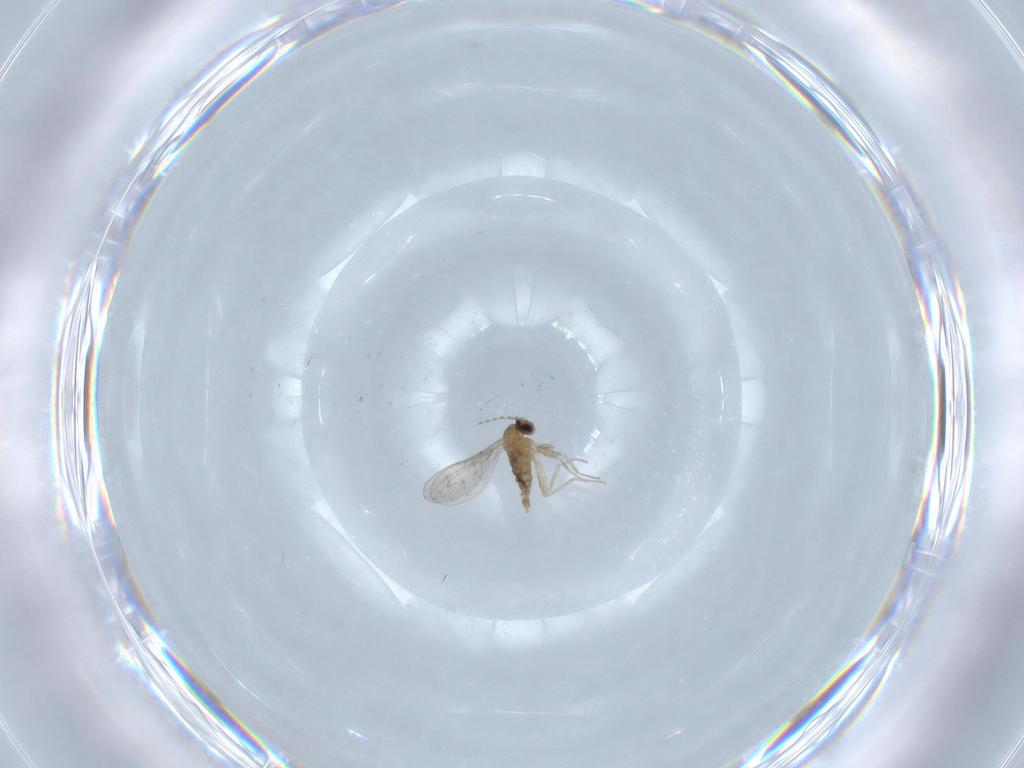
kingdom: Animalia
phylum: Arthropoda
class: Insecta
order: Diptera
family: Cecidomyiidae
